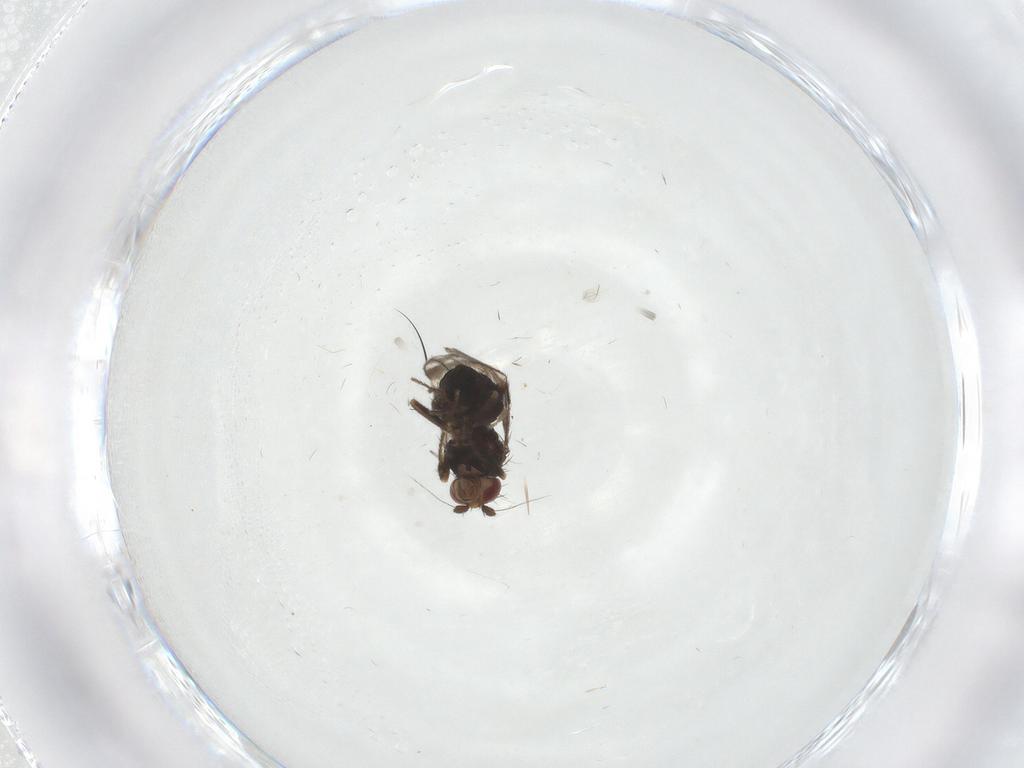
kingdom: Animalia
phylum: Arthropoda
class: Insecta
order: Diptera
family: Sphaeroceridae
